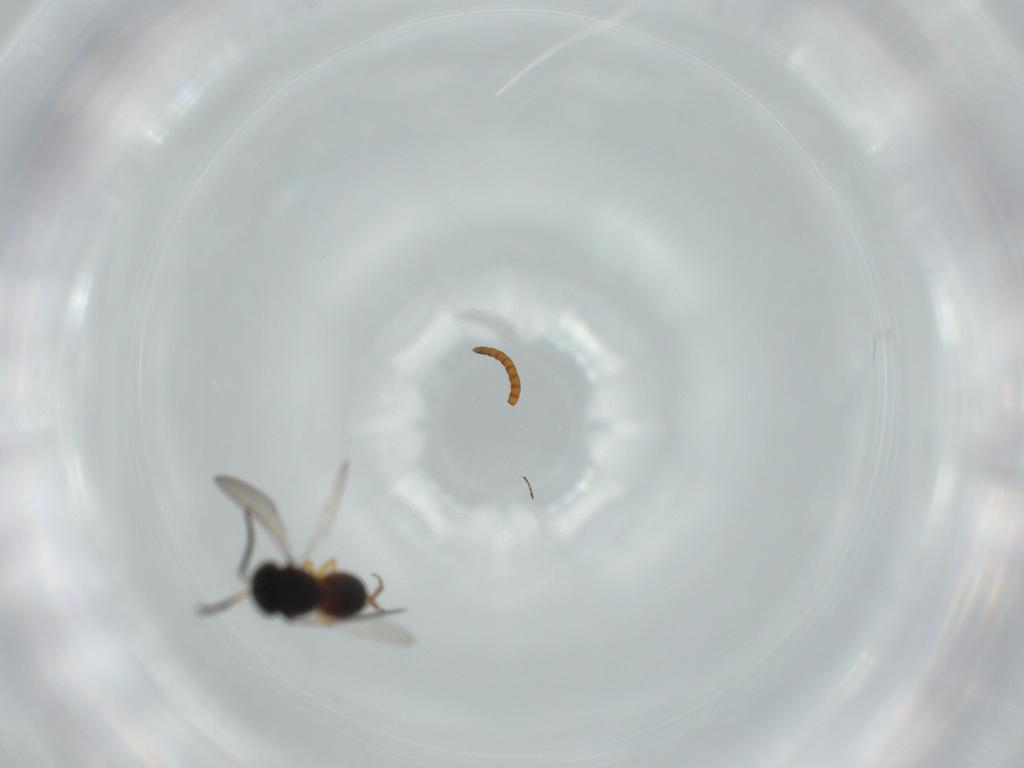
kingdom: Animalia
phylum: Arthropoda
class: Insecta
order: Hymenoptera
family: Scelionidae
